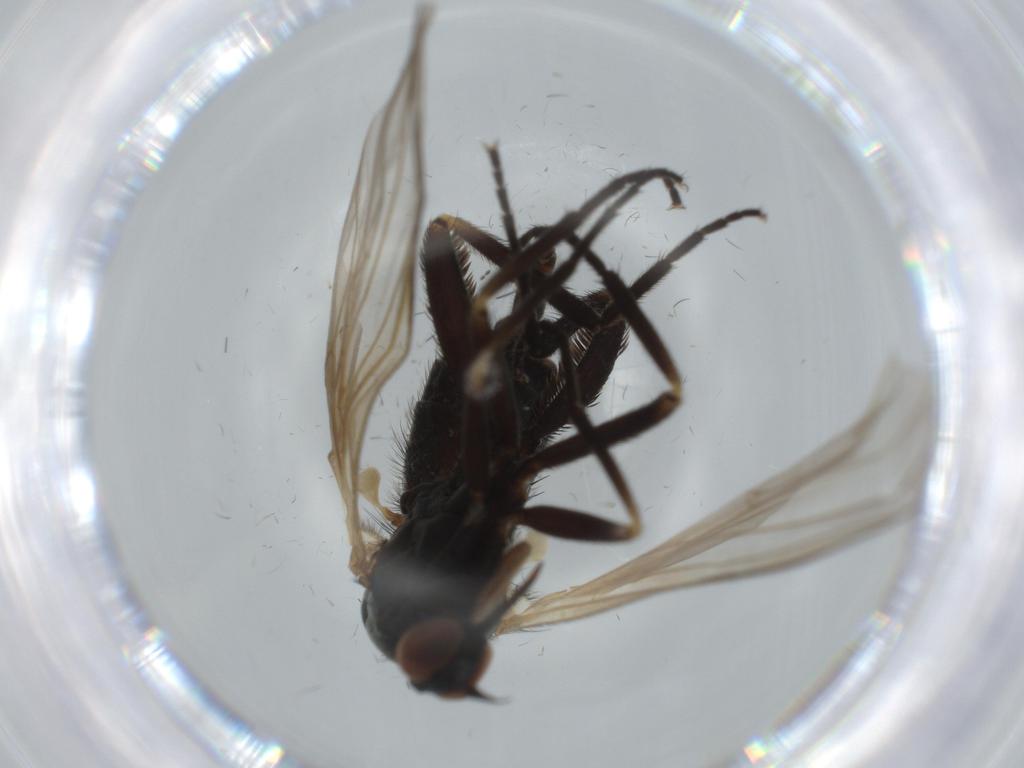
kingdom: Animalia
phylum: Arthropoda
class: Insecta
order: Diptera
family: Empididae
